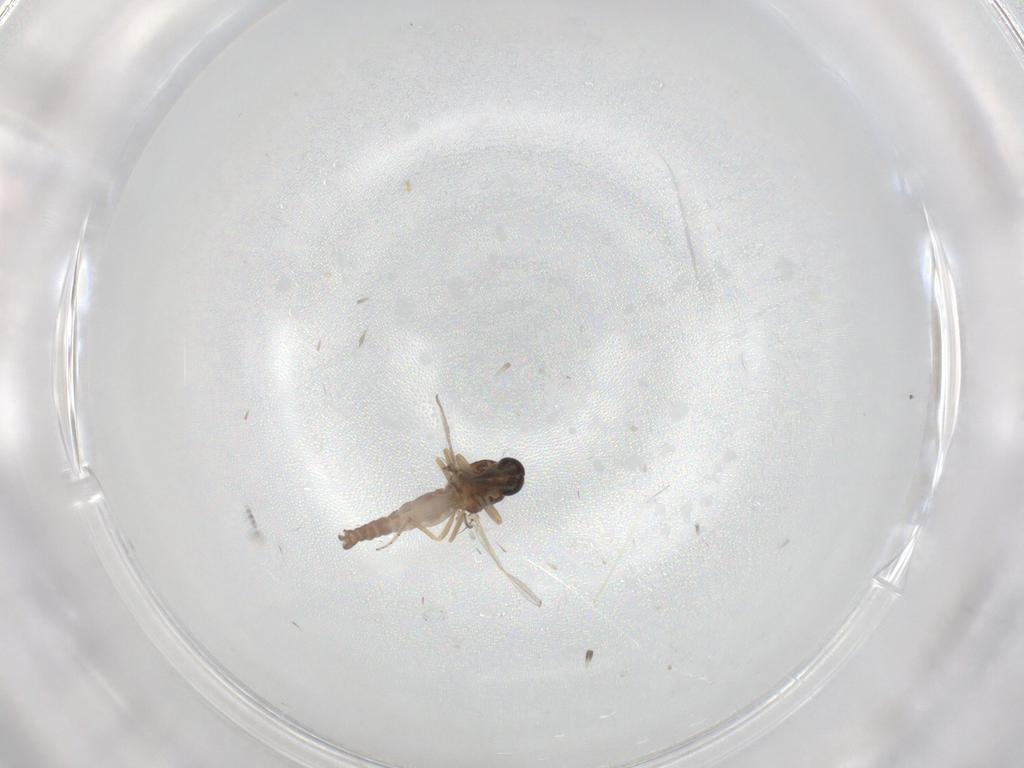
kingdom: Animalia
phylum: Arthropoda
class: Insecta
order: Diptera
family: Ceratopogonidae
